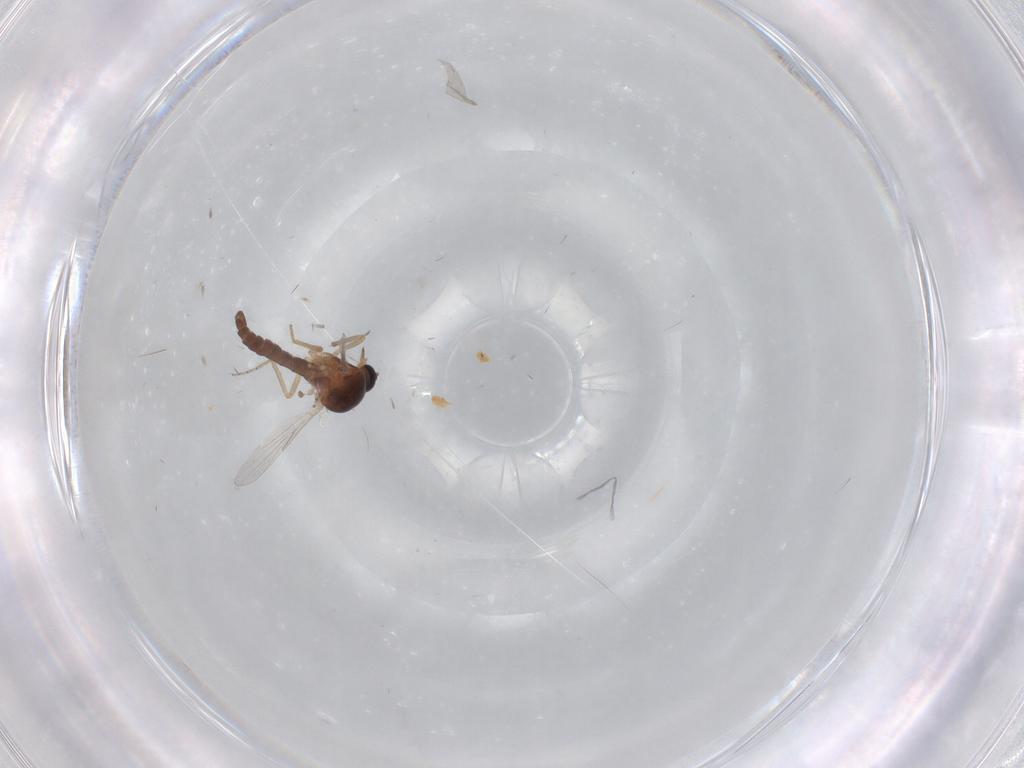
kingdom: Animalia
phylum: Arthropoda
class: Insecta
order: Diptera
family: Ceratopogonidae
